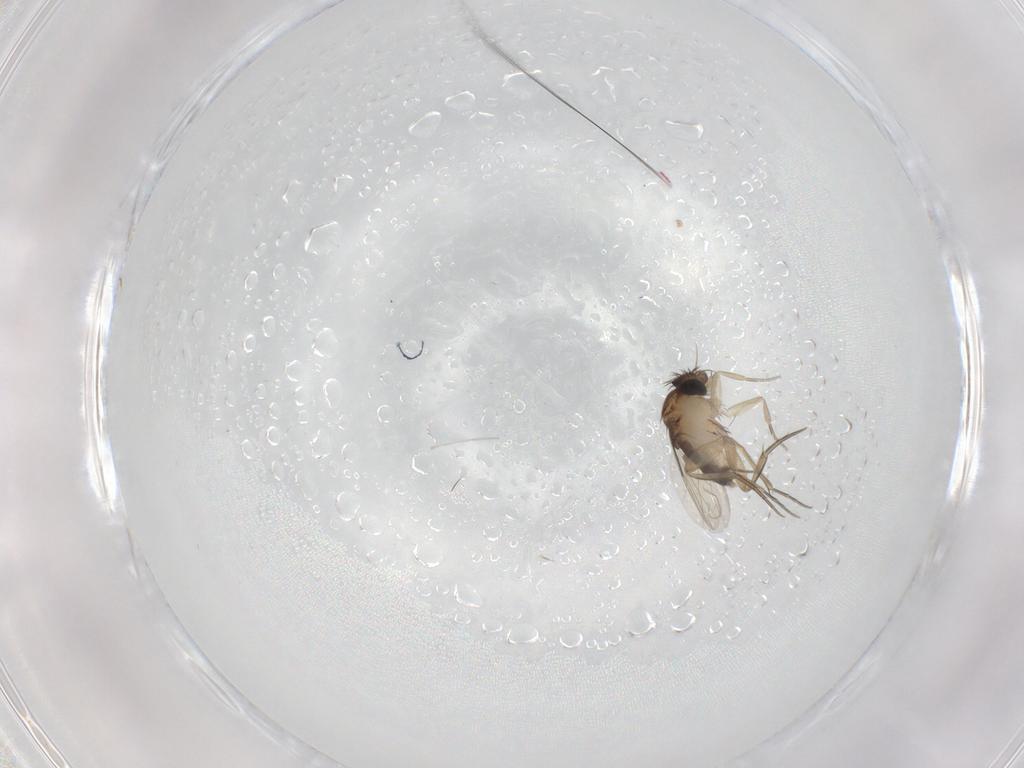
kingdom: Animalia
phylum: Arthropoda
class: Insecta
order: Diptera
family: Phoridae
